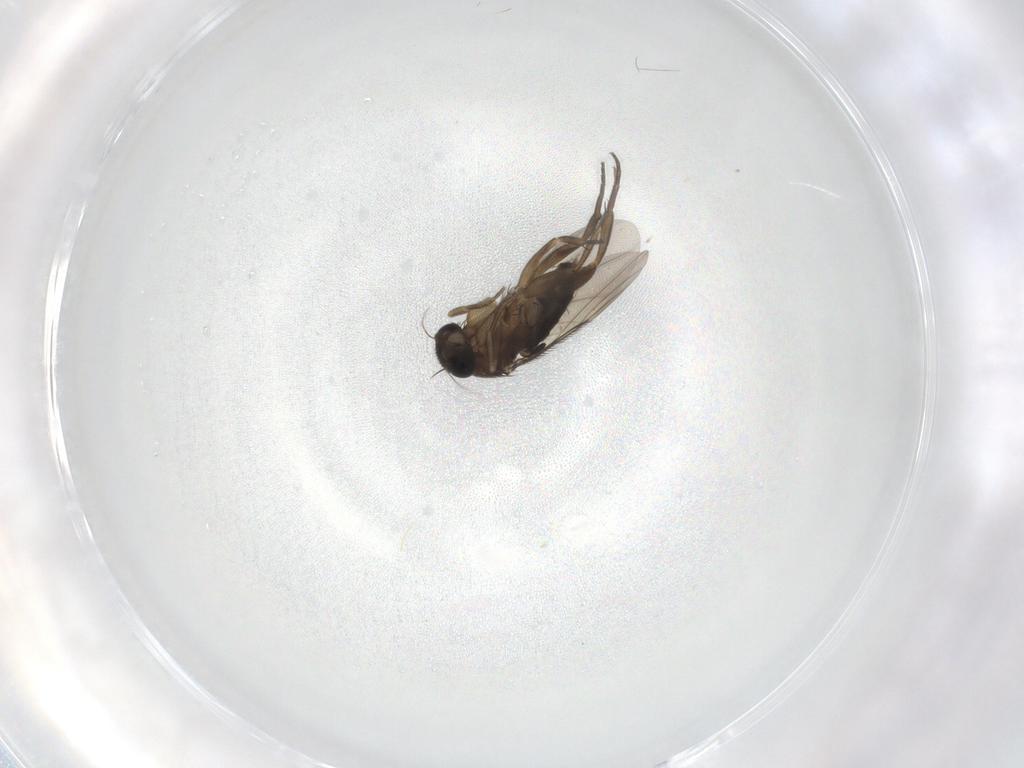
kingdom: Animalia
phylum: Arthropoda
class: Insecta
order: Diptera
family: Phoridae
